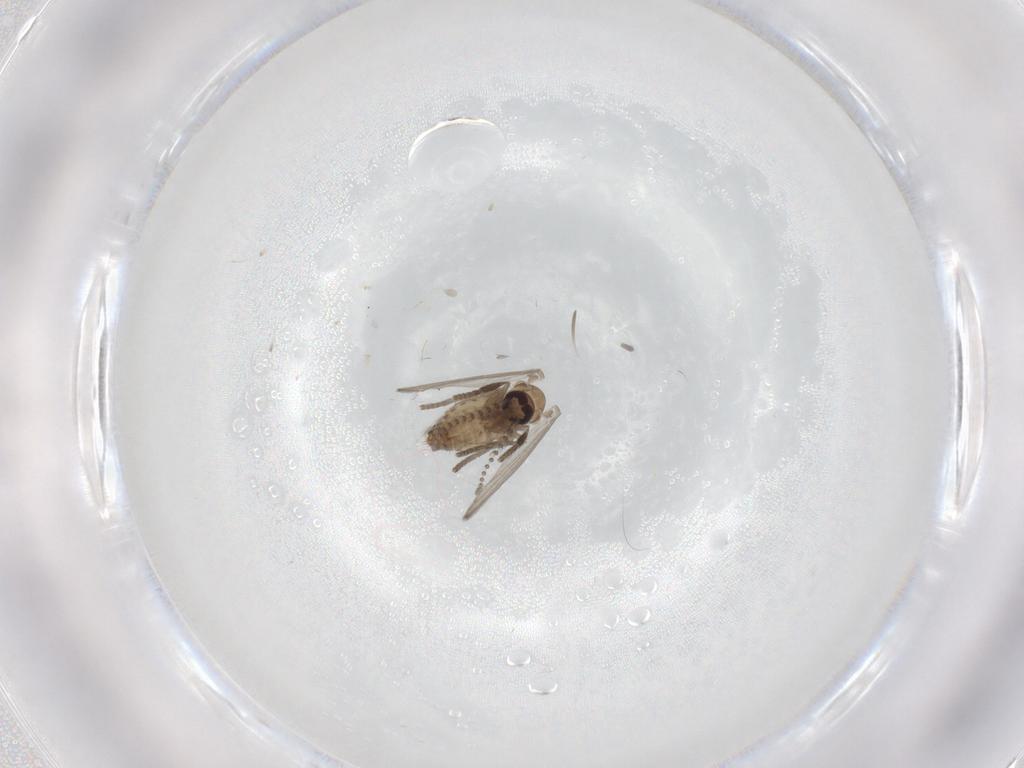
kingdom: Animalia
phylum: Arthropoda
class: Insecta
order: Diptera
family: Psychodidae
